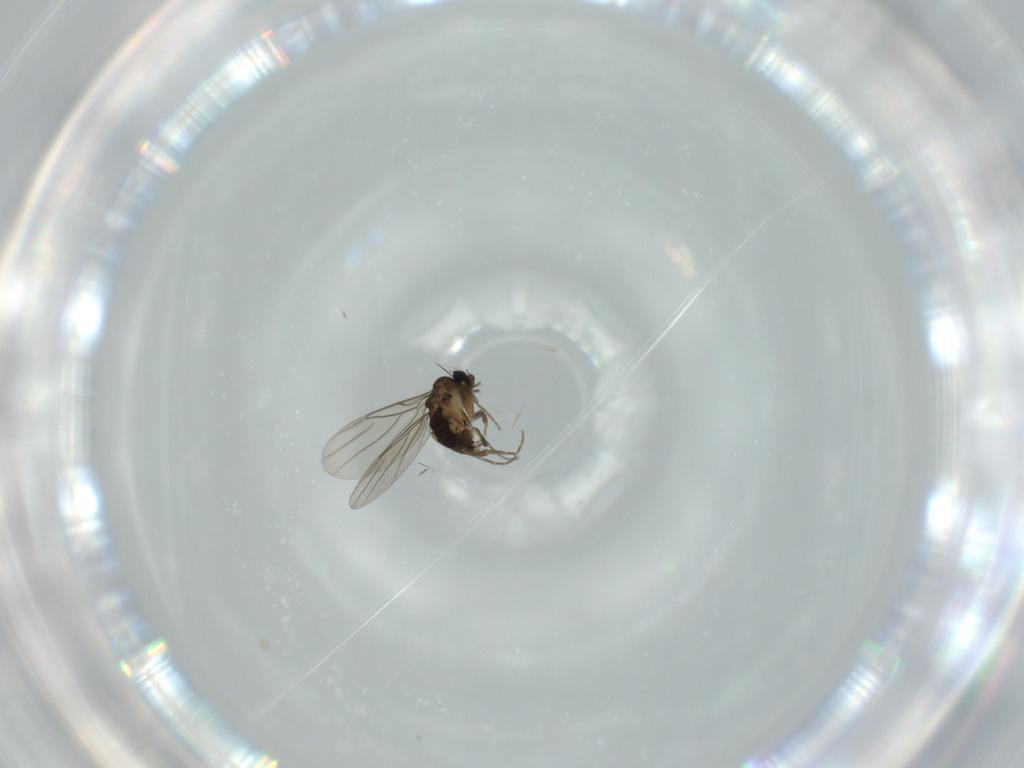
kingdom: Animalia
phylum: Arthropoda
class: Insecta
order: Diptera
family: Phoridae
